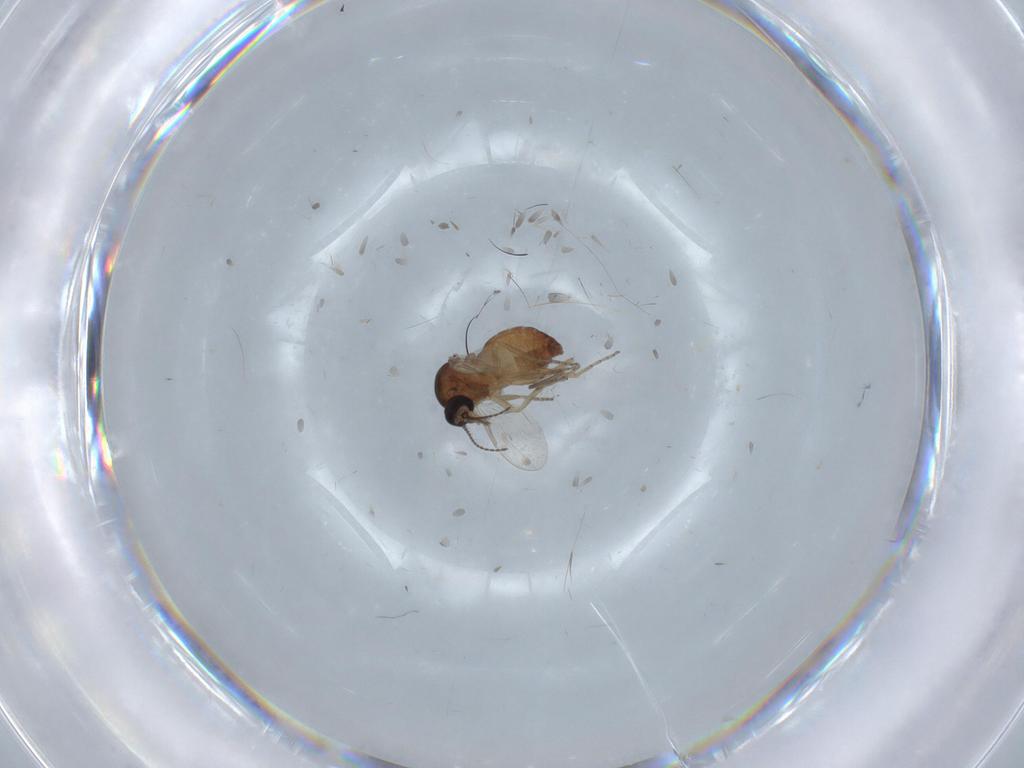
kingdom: Animalia
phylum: Arthropoda
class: Insecta
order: Diptera
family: Ceratopogonidae
